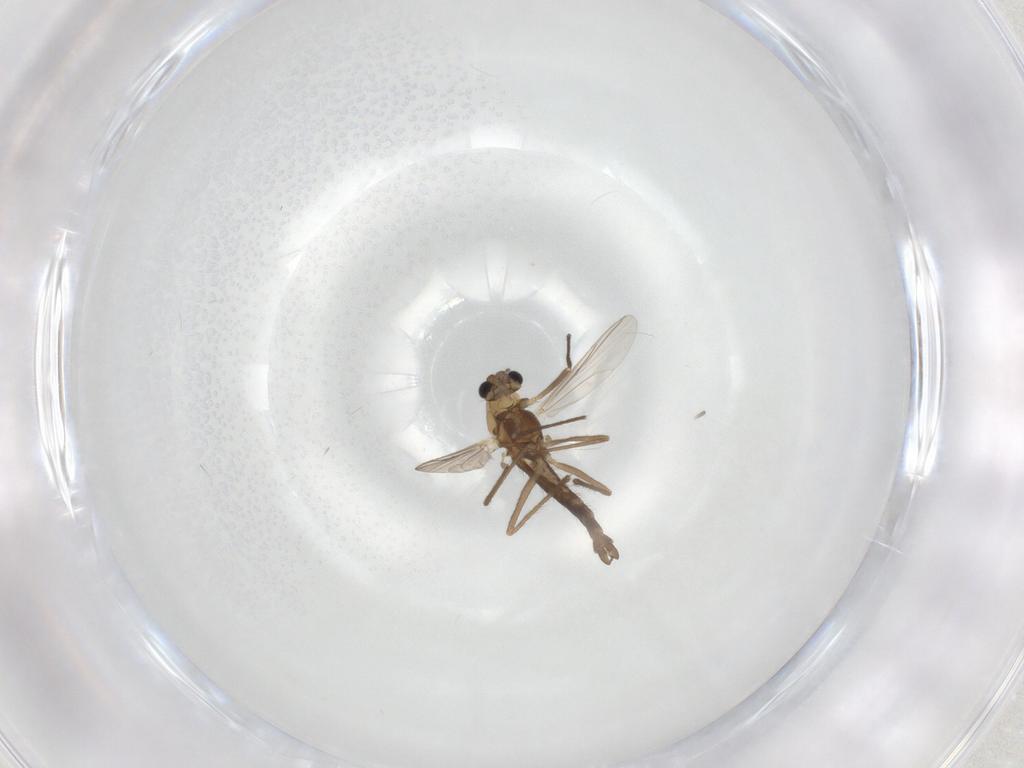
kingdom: Animalia
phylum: Arthropoda
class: Insecta
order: Diptera
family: Chironomidae
